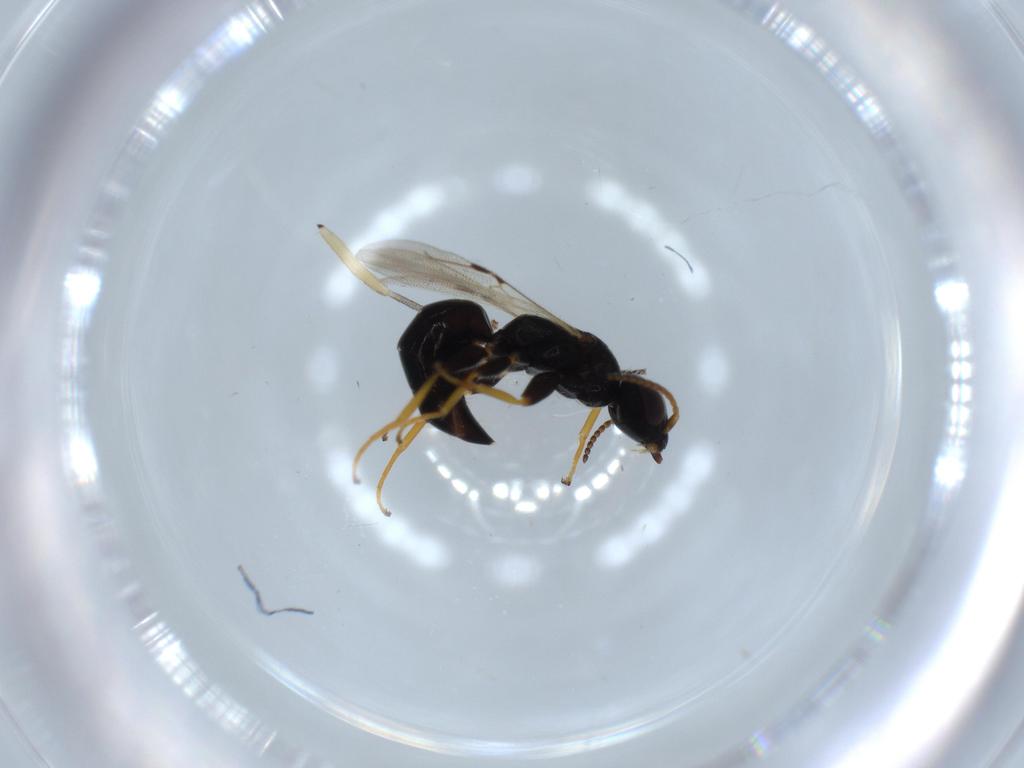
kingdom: Animalia
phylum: Arthropoda
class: Insecta
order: Hymenoptera
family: Bethylidae
